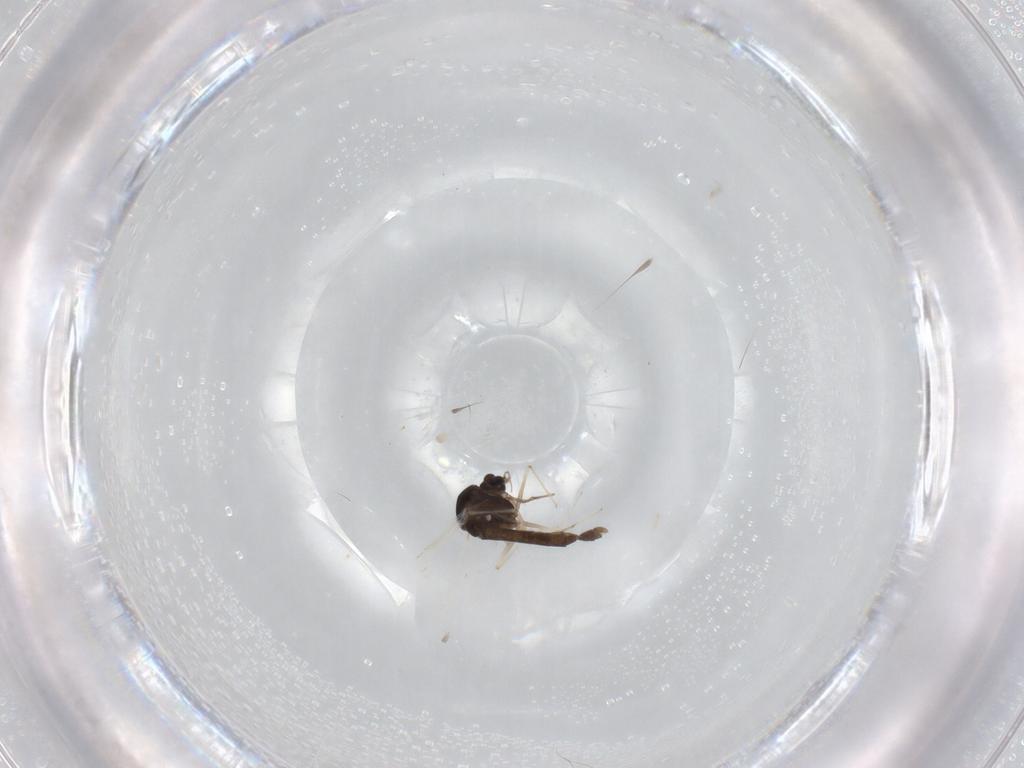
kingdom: Animalia
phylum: Arthropoda
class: Insecta
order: Diptera
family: Chironomidae
